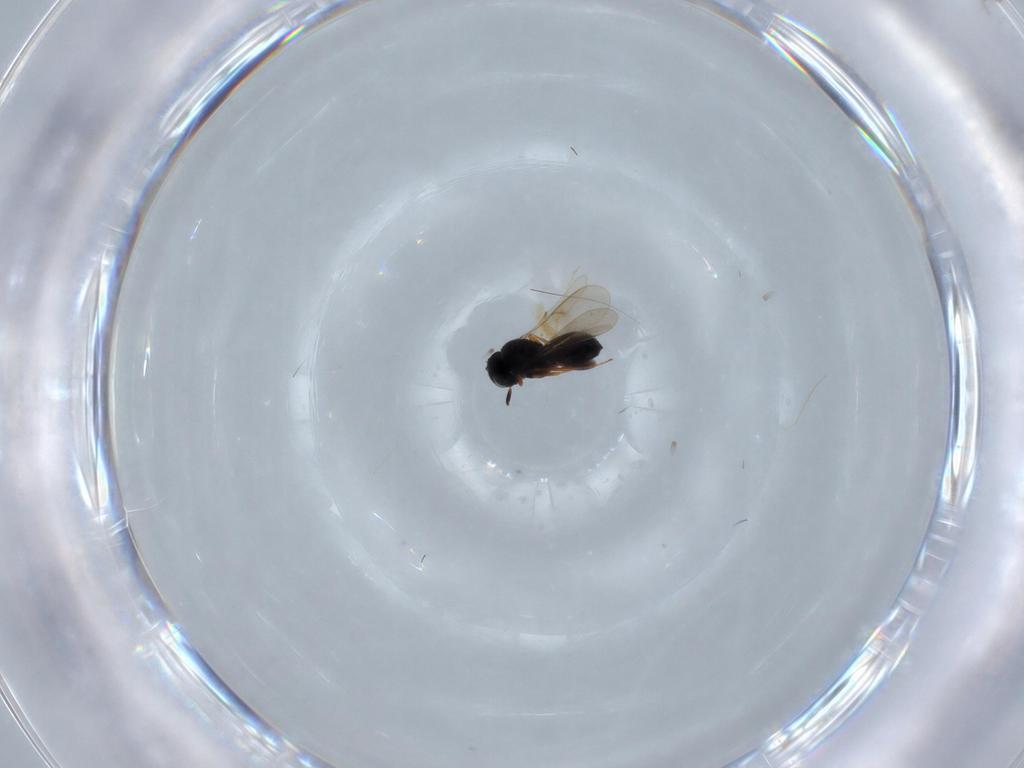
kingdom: Animalia
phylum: Arthropoda
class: Insecta
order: Hymenoptera
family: Scelionidae
